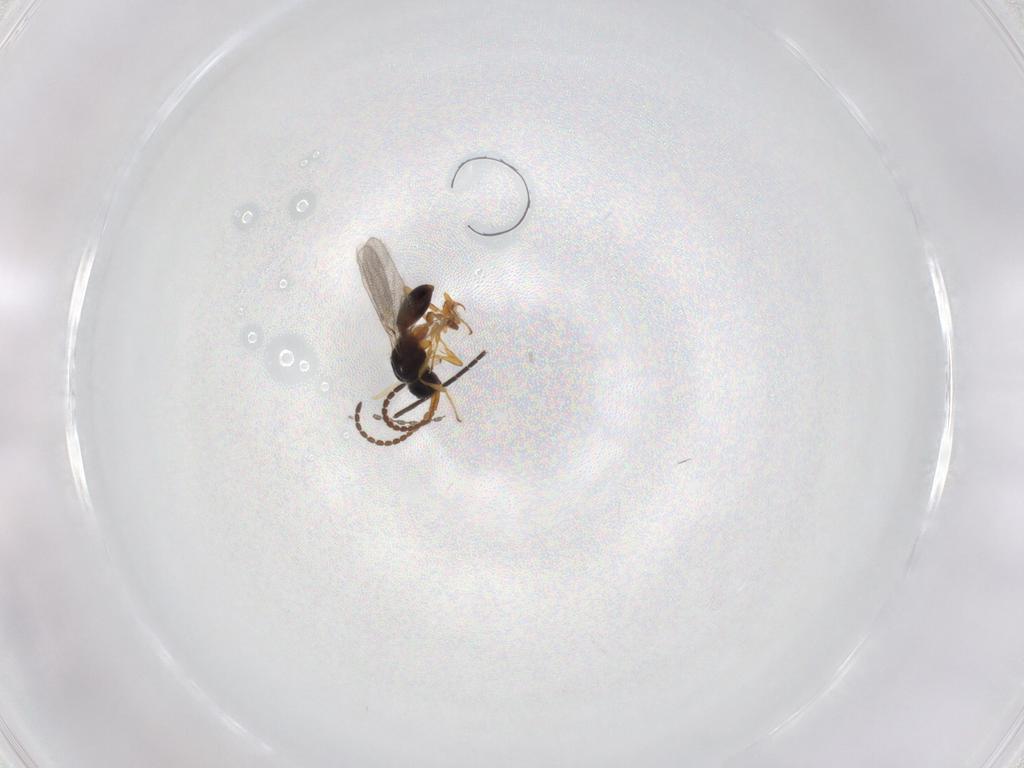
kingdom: Animalia
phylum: Arthropoda
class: Insecta
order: Hymenoptera
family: Diapriidae
